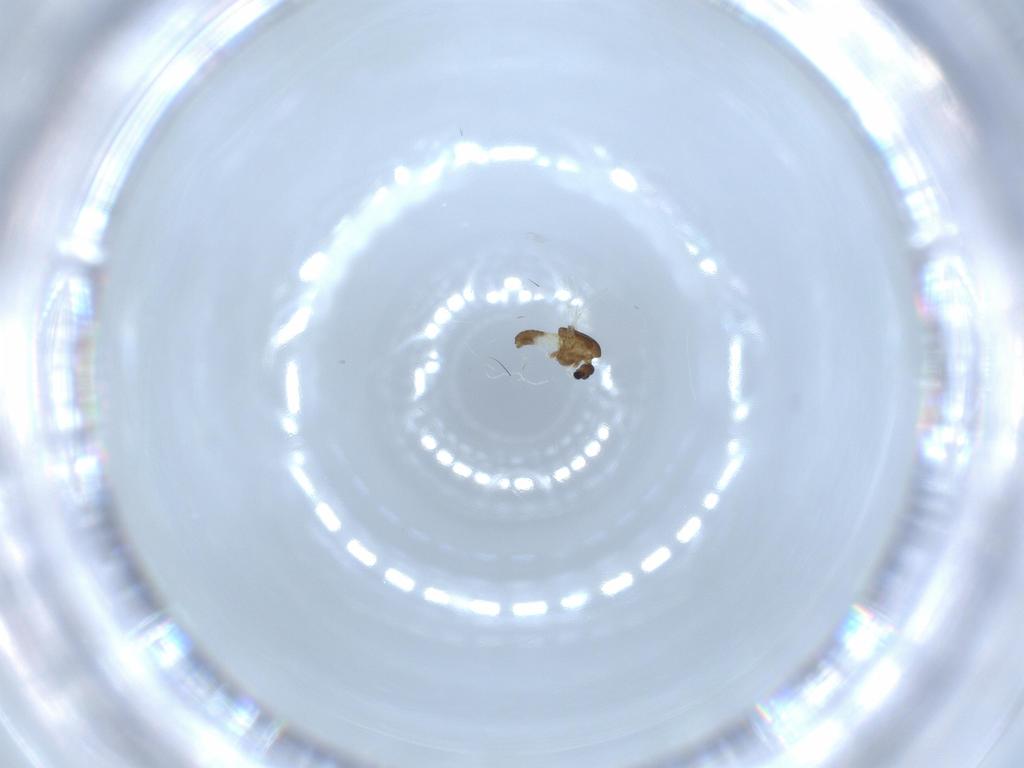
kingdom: Animalia
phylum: Arthropoda
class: Insecta
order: Diptera
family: Chironomidae
